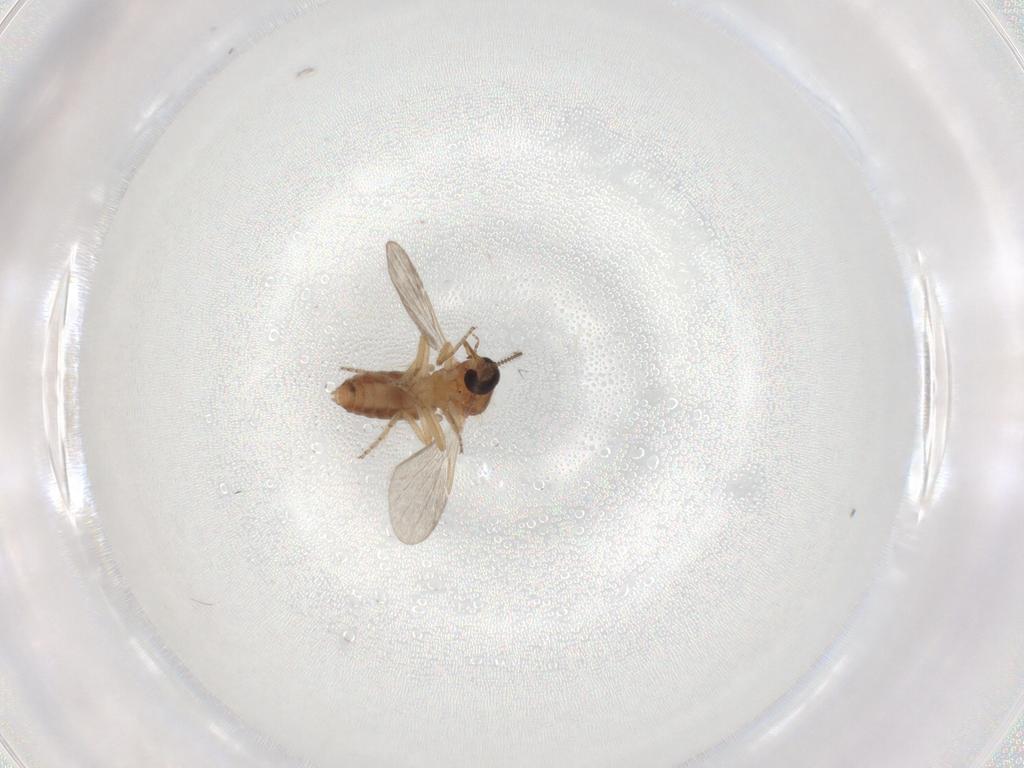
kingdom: Animalia
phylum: Arthropoda
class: Insecta
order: Diptera
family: Ceratopogonidae
